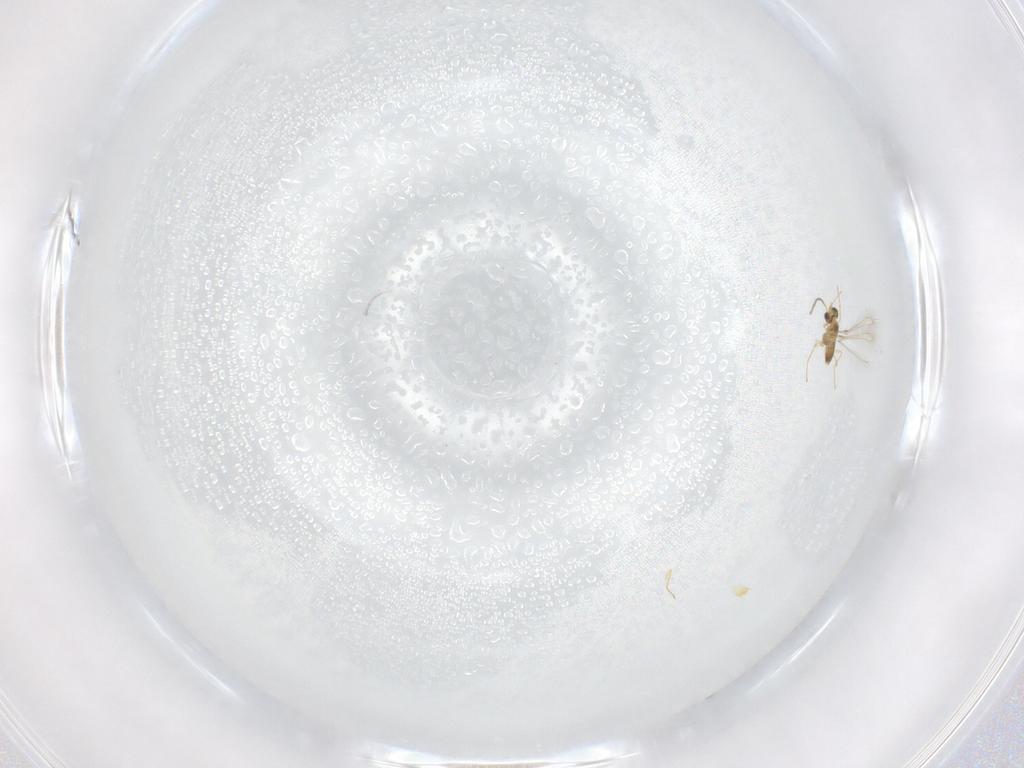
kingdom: Animalia
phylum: Arthropoda
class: Insecta
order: Hymenoptera
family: Mymaridae
